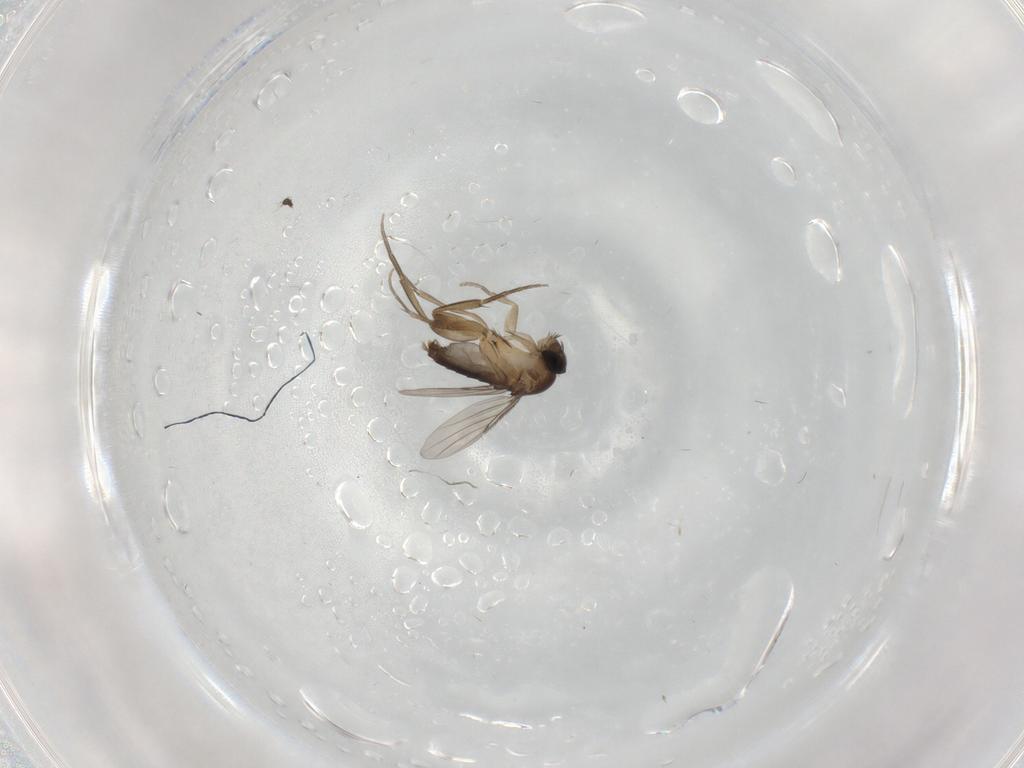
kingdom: Animalia
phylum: Arthropoda
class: Insecta
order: Diptera
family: Phoridae
